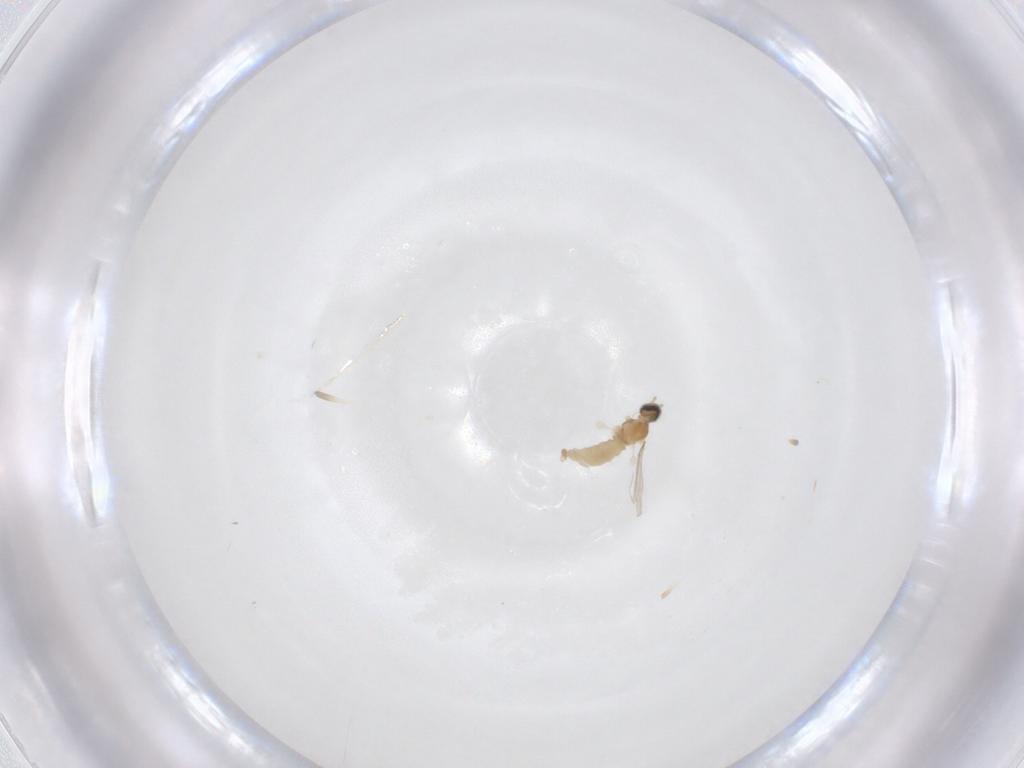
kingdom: Animalia
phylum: Arthropoda
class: Insecta
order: Diptera
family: Cecidomyiidae
